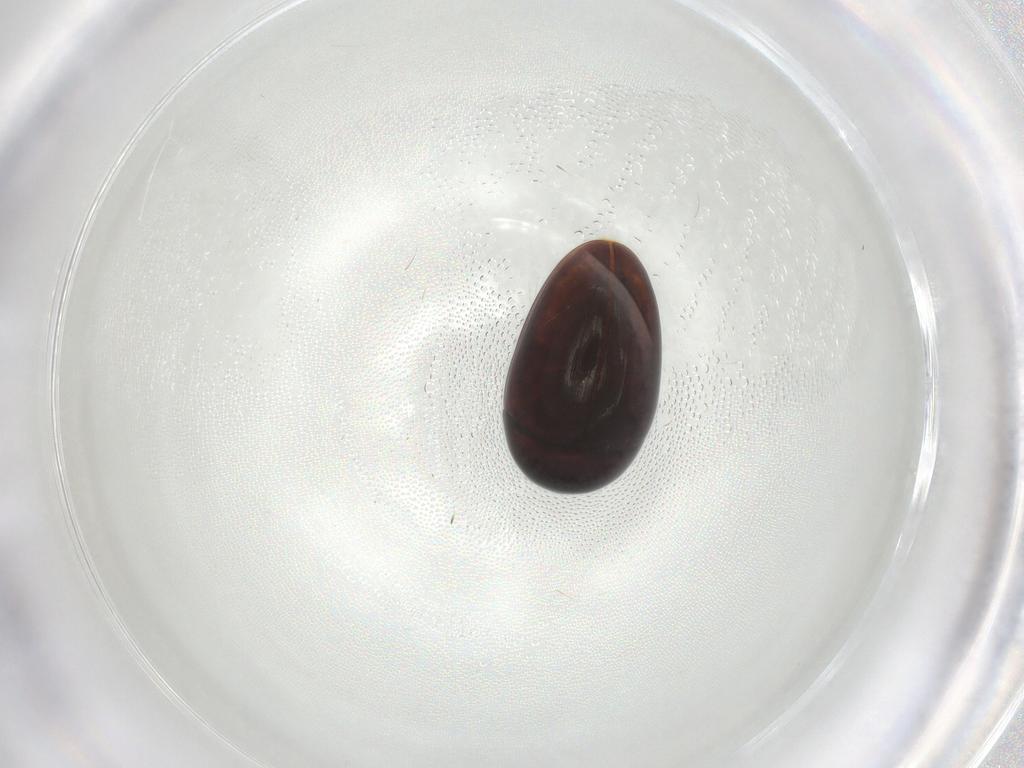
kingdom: Animalia
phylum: Arthropoda
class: Insecta
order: Coleoptera
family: Phalacridae
